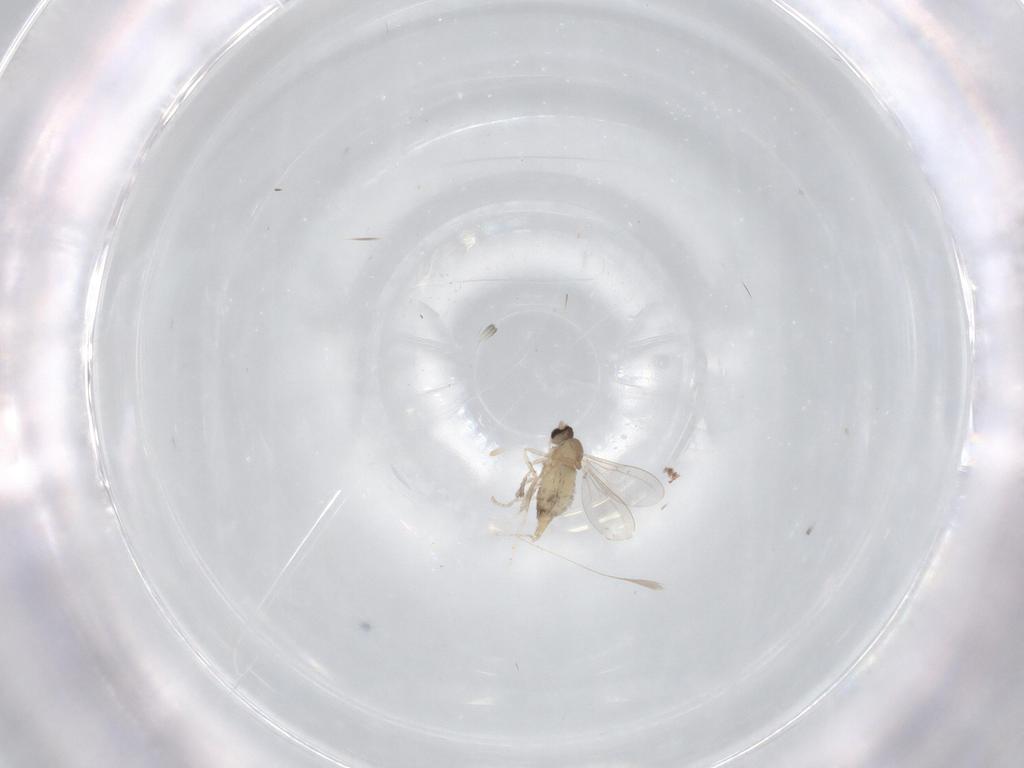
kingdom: Animalia
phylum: Arthropoda
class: Insecta
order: Diptera
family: Cecidomyiidae
